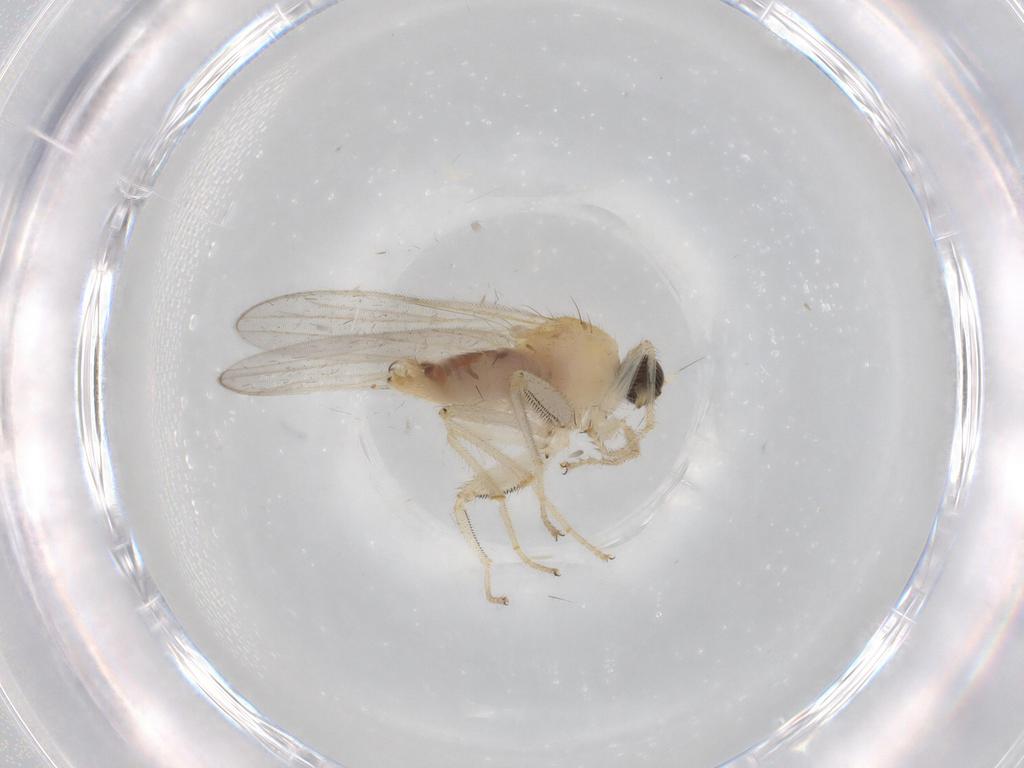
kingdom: Animalia
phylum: Arthropoda
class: Insecta
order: Diptera
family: Hybotidae
